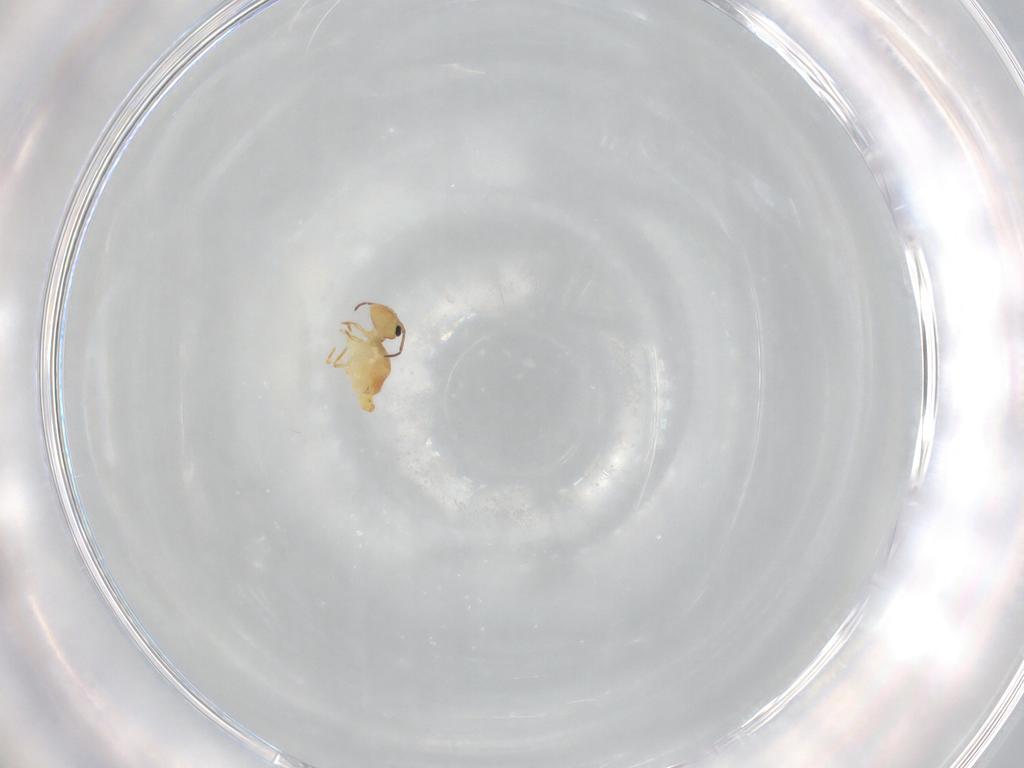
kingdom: Animalia
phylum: Arthropoda
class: Collembola
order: Symphypleona
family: Bourletiellidae
